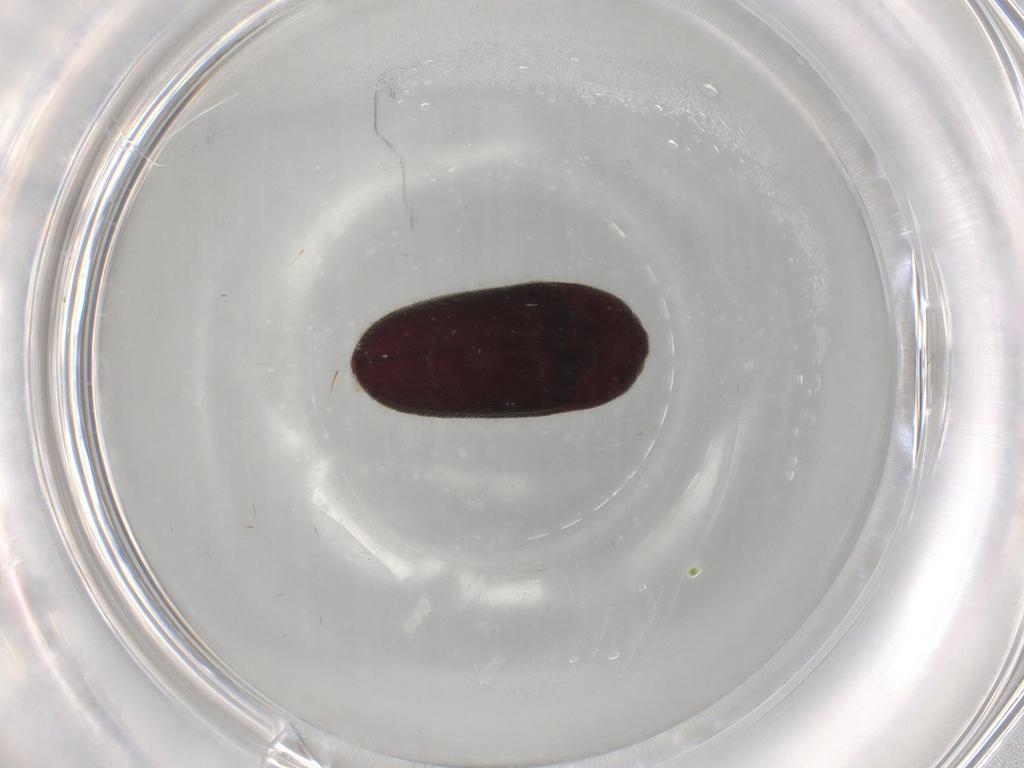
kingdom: Animalia
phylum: Arthropoda
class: Insecta
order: Coleoptera
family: Throscidae
